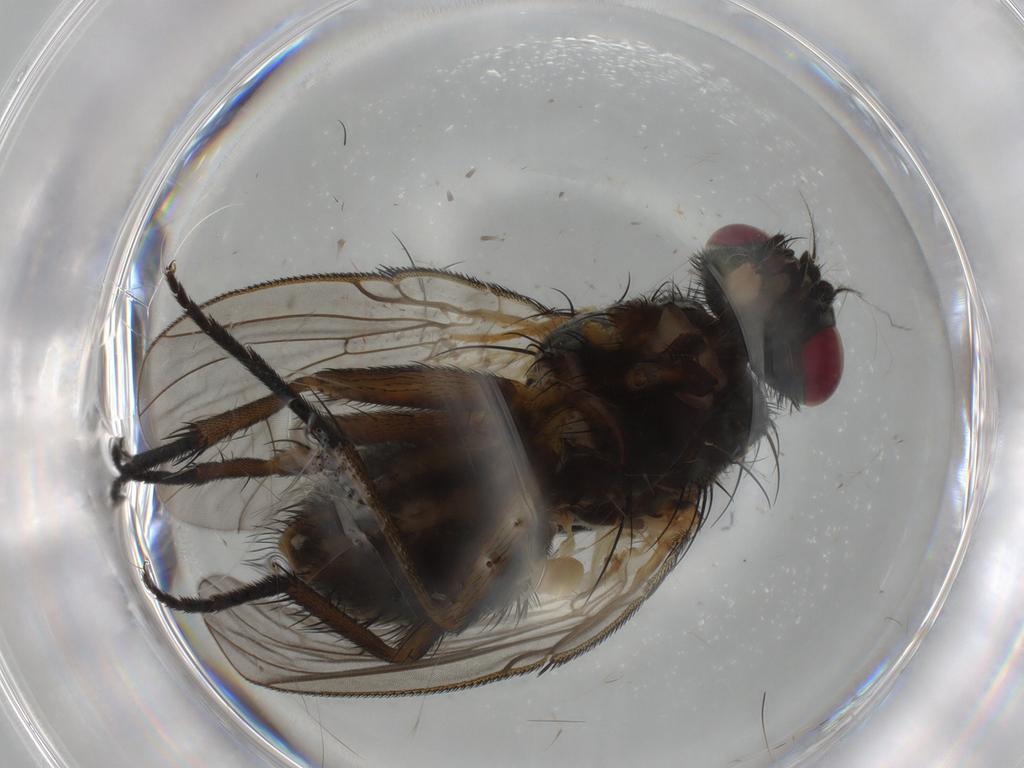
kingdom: Animalia
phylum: Arthropoda
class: Insecta
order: Diptera
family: Muscidae
